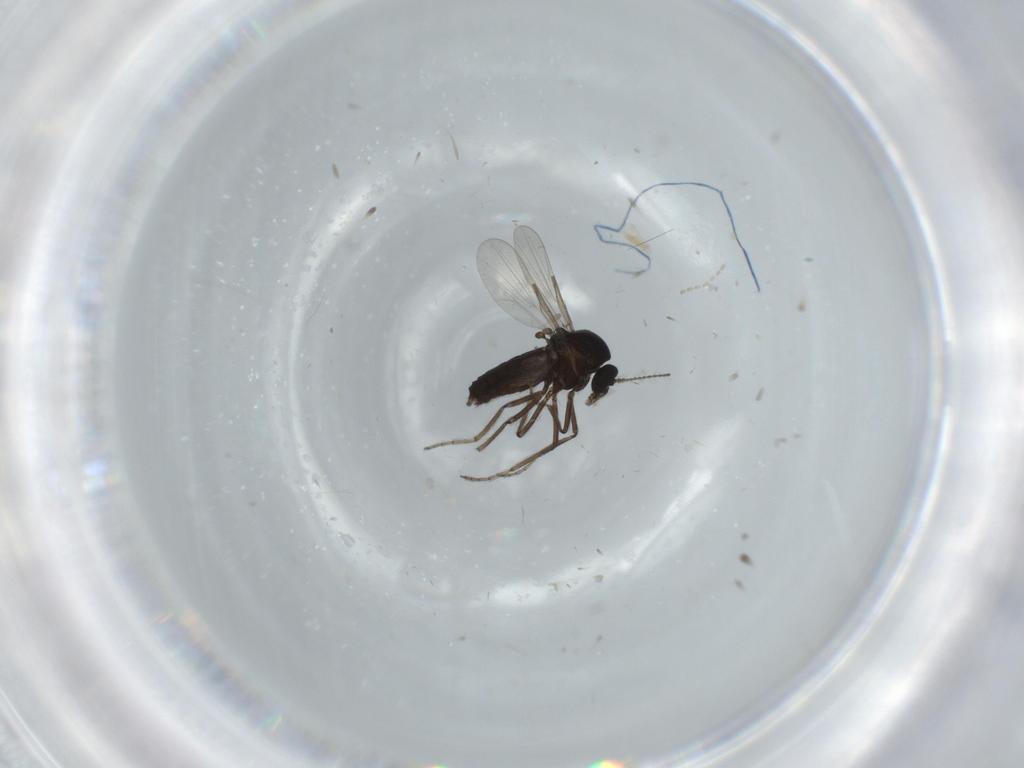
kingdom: Animalia
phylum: Arthropoda
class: Insecta
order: Diptera
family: Ceratopogonidae
